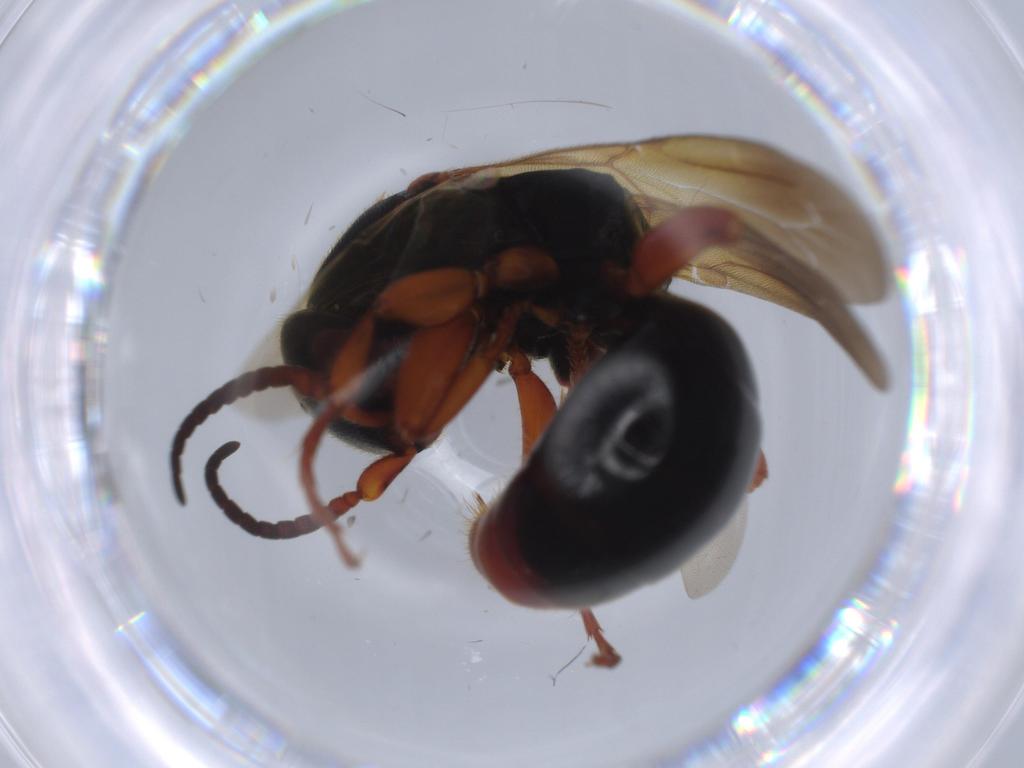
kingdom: Animalia
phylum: Arthropoda
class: Insecta
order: Hymenoptera
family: Bethylidae
